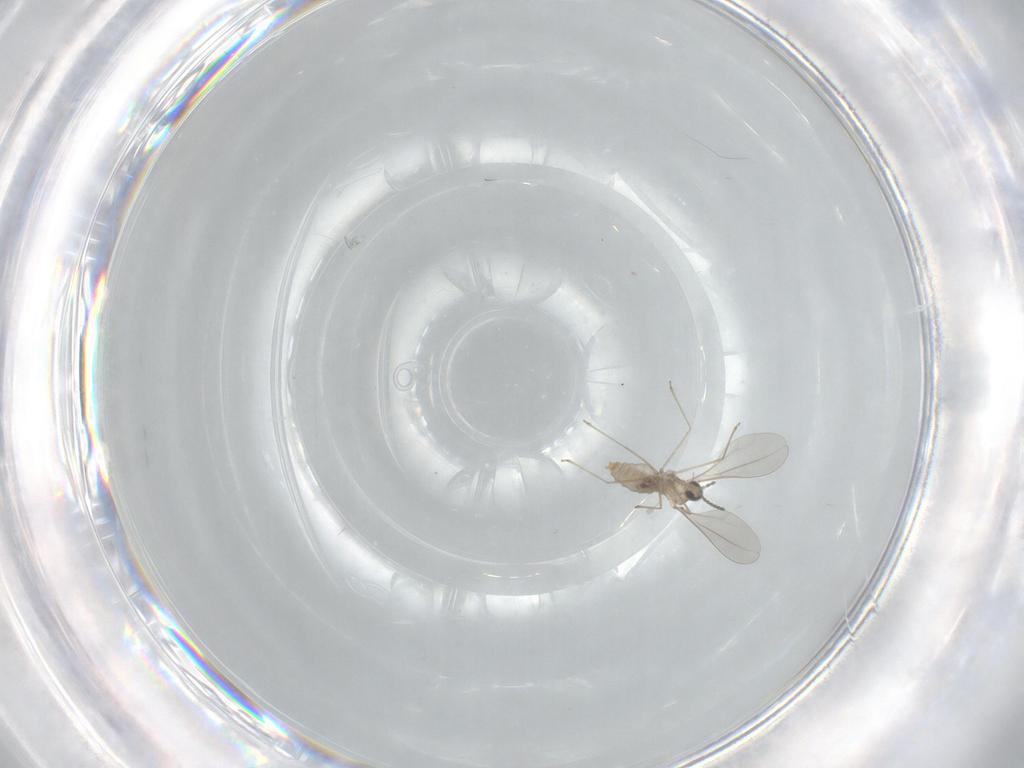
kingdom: Animalia
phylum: Arthropoda
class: Insecta
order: Diptera
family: Cecidomyiidae
